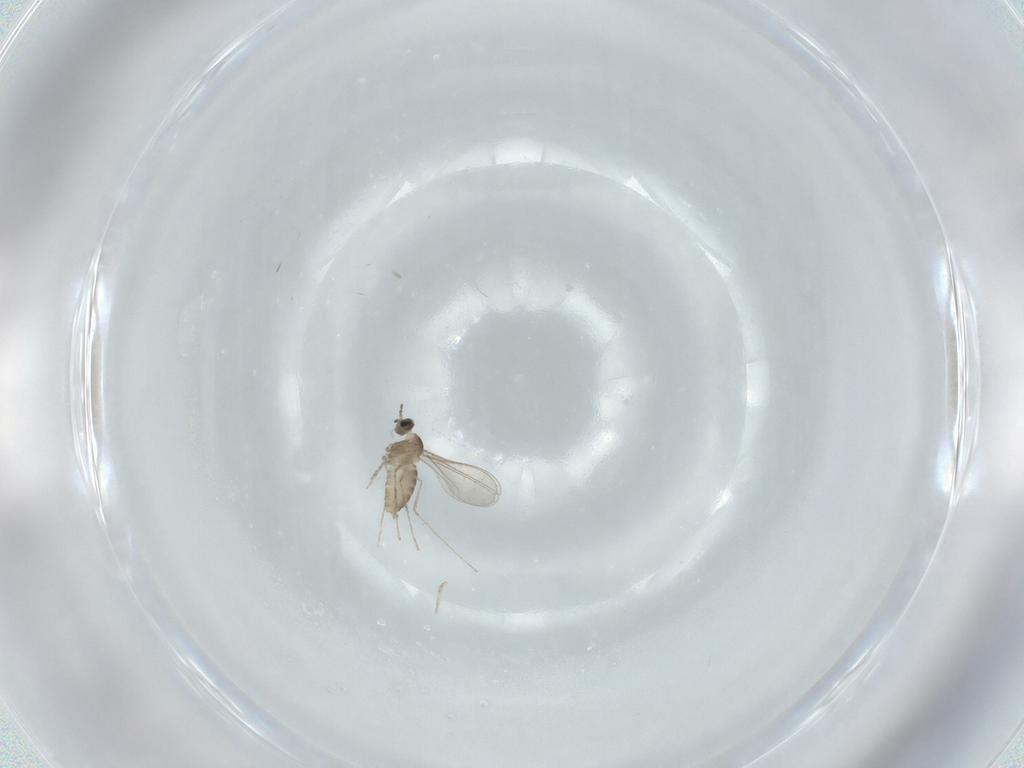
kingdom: Animalia
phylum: Arthropoda
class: Insecta
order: Diptera
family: Cecidomyiidae
